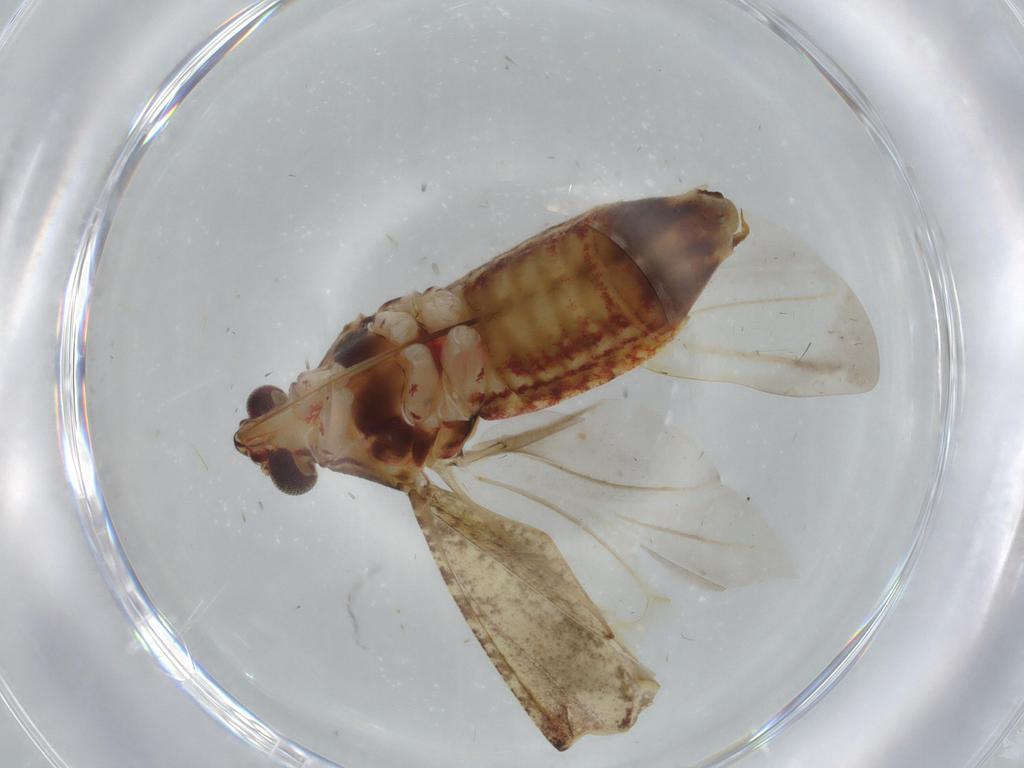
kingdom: Animalia
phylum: Arthropoda
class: Insecta
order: Hemiptera
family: Miridae
